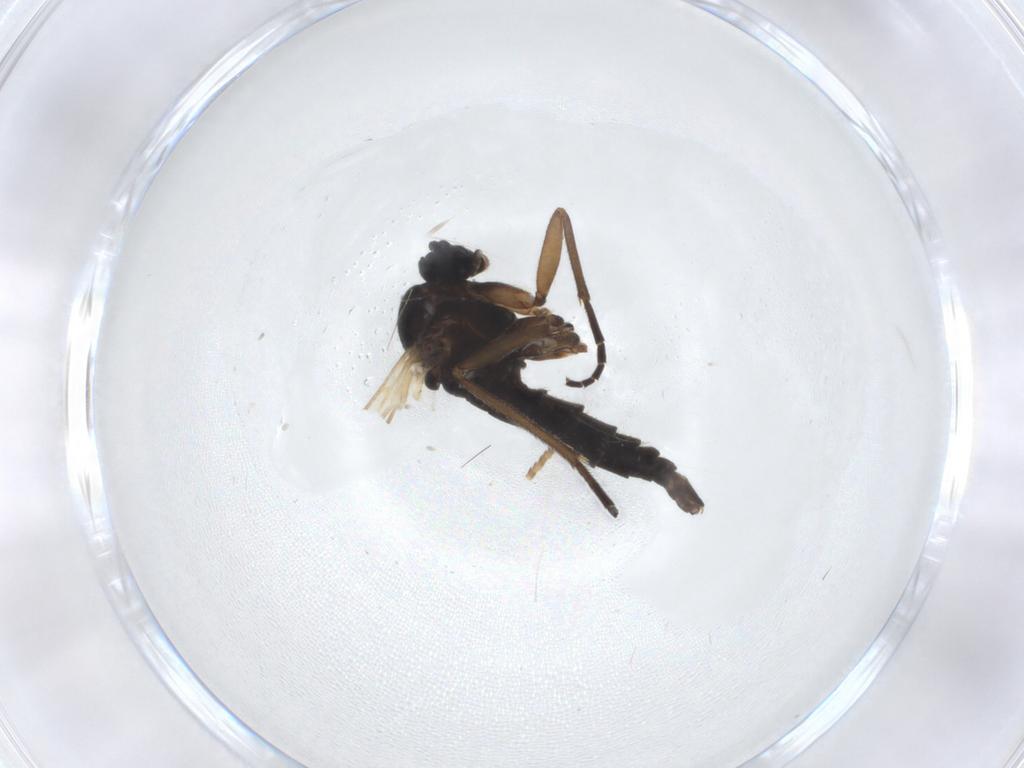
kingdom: Animalia
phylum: Arthropoda
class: Insecta
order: Diptera
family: Sciaridae
